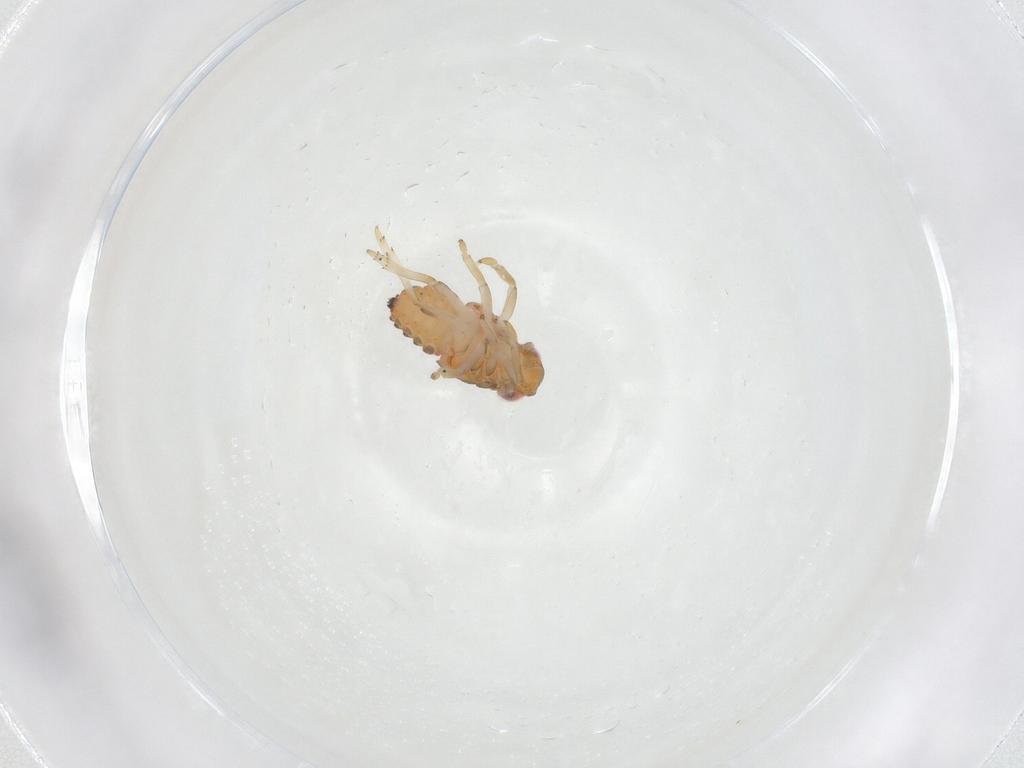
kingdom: Animalia
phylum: Arthropoda
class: Insecta
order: Hemiptera
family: Issidae
